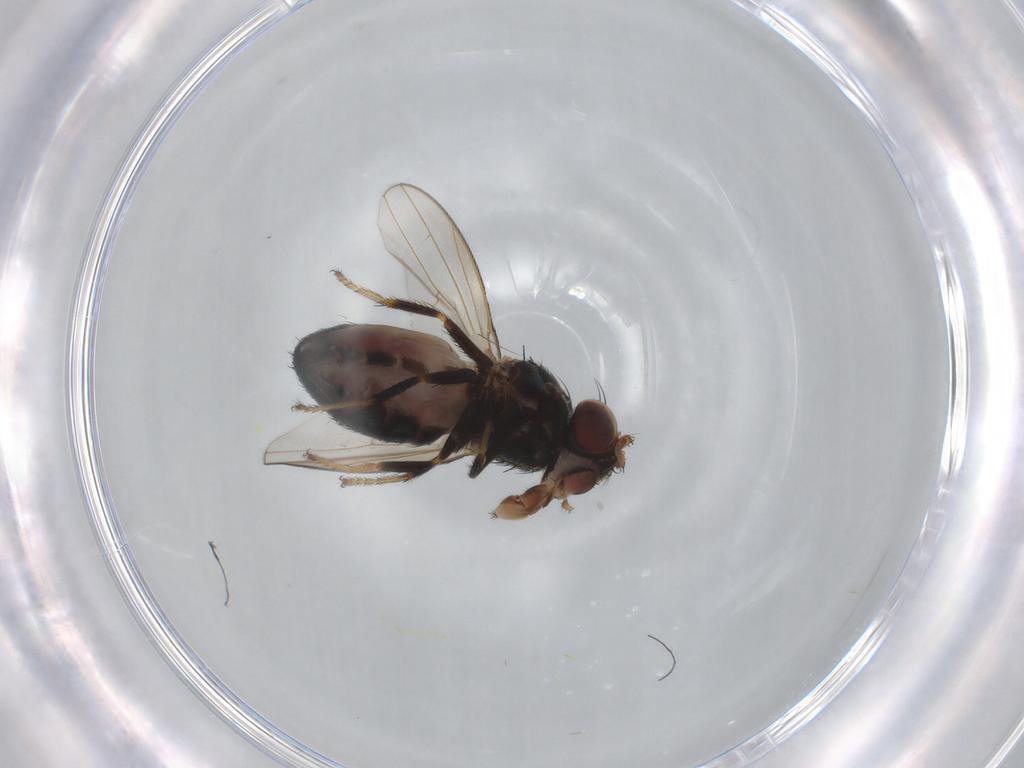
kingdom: Animalia
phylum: Arthropoda
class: Insecta
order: Diptera
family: Ephydridae
